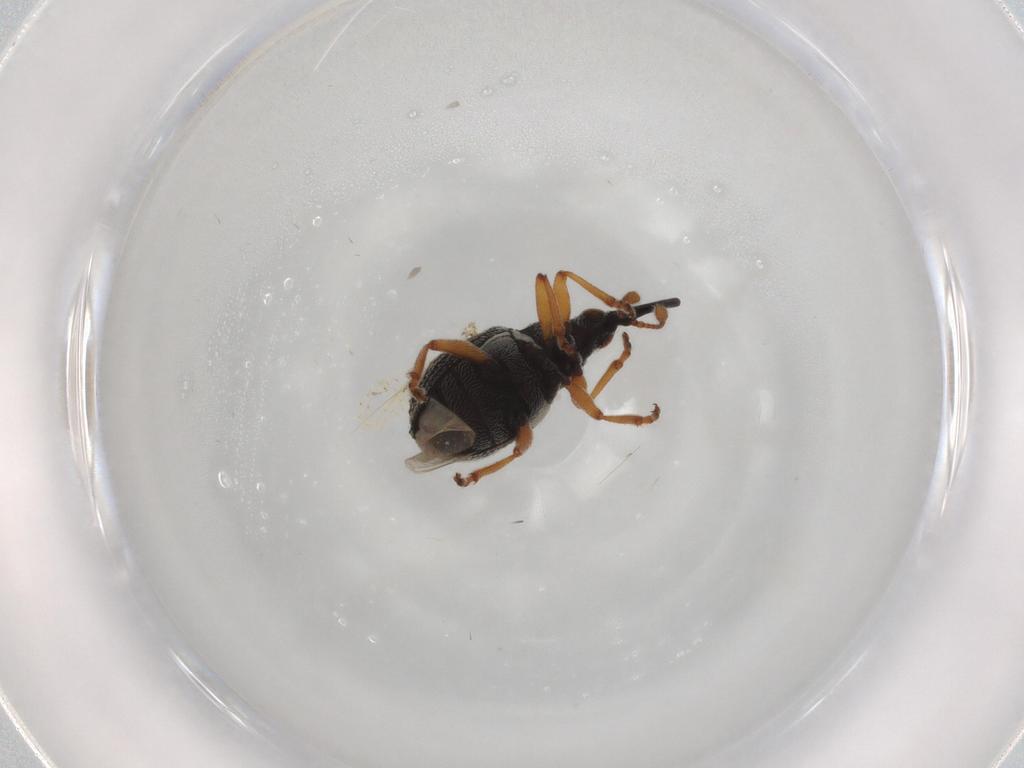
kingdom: Animalia
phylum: Arthropoda
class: Insecta
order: Coleoptera
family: Brentidae
